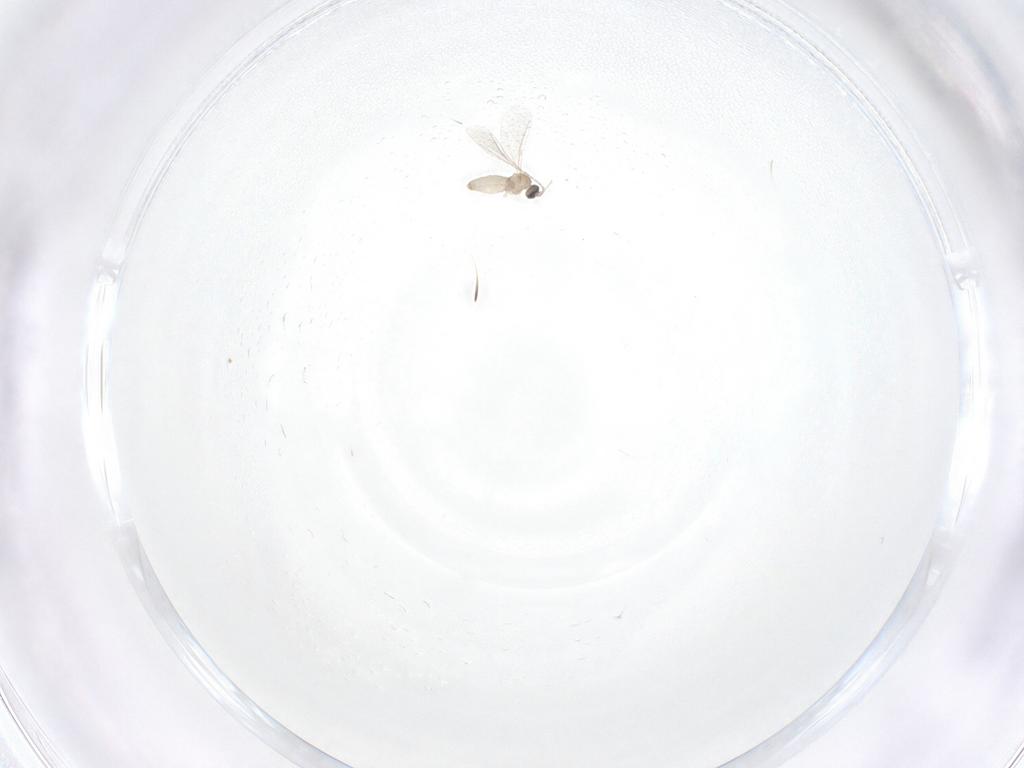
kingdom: Animalia
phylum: Arthropoda
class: Insecta
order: Diptera
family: Cecidomyiidae
